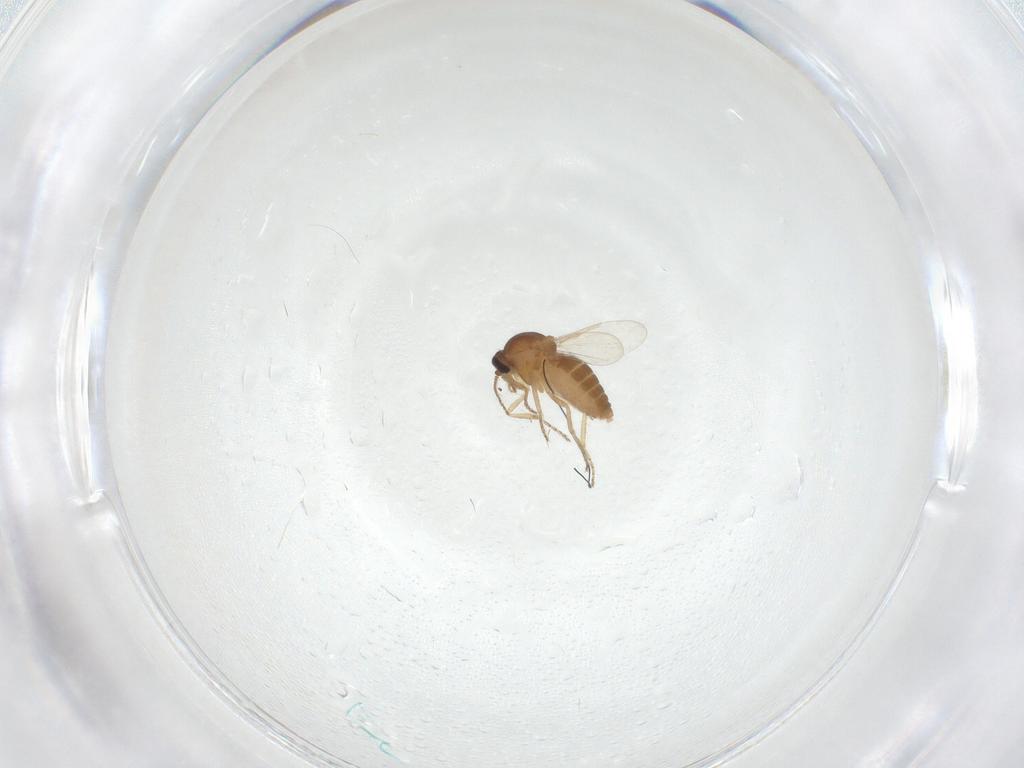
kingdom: Animalia
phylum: Arthropoda
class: Insecta
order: Diptera
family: Ceratopogonidae
